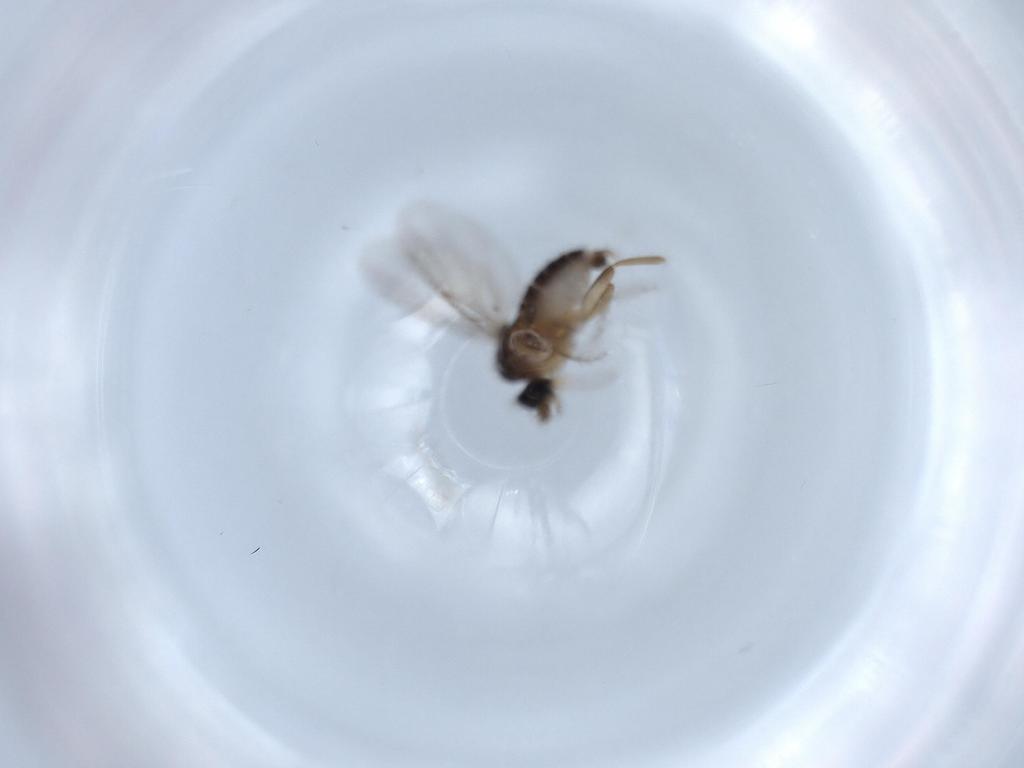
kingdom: Animalia
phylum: Arthropoda
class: Insecta
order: Diptera
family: Phoridae
